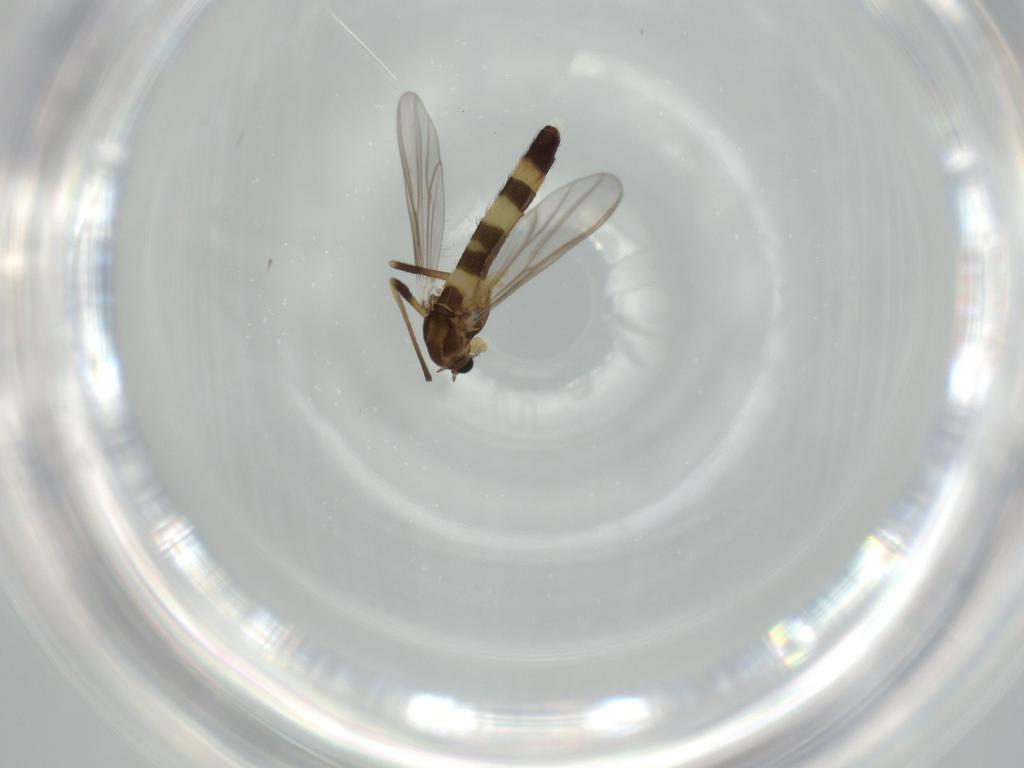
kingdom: Animalia
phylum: Arthropoda
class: Insecta
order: Diptera
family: Chironomidae
